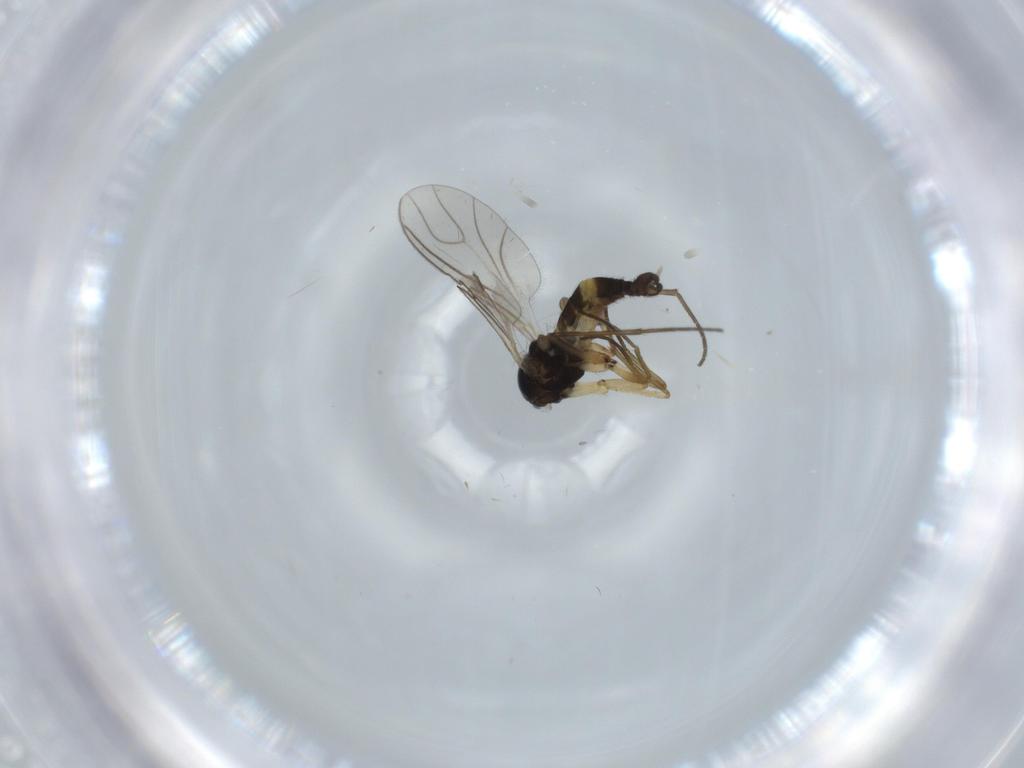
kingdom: Animalia
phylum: Arthropoda
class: Insecta
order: Diptera
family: Sciaridae
